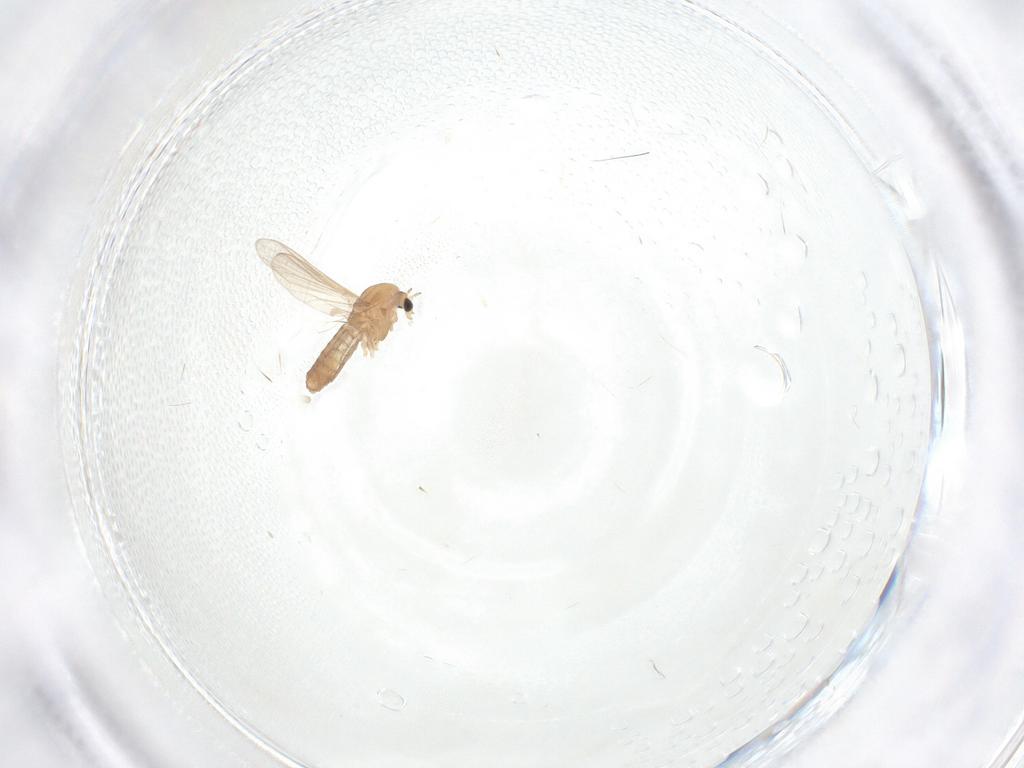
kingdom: Animalia
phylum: Arthropoda
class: Insecta
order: Diptera
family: Chironomidae
